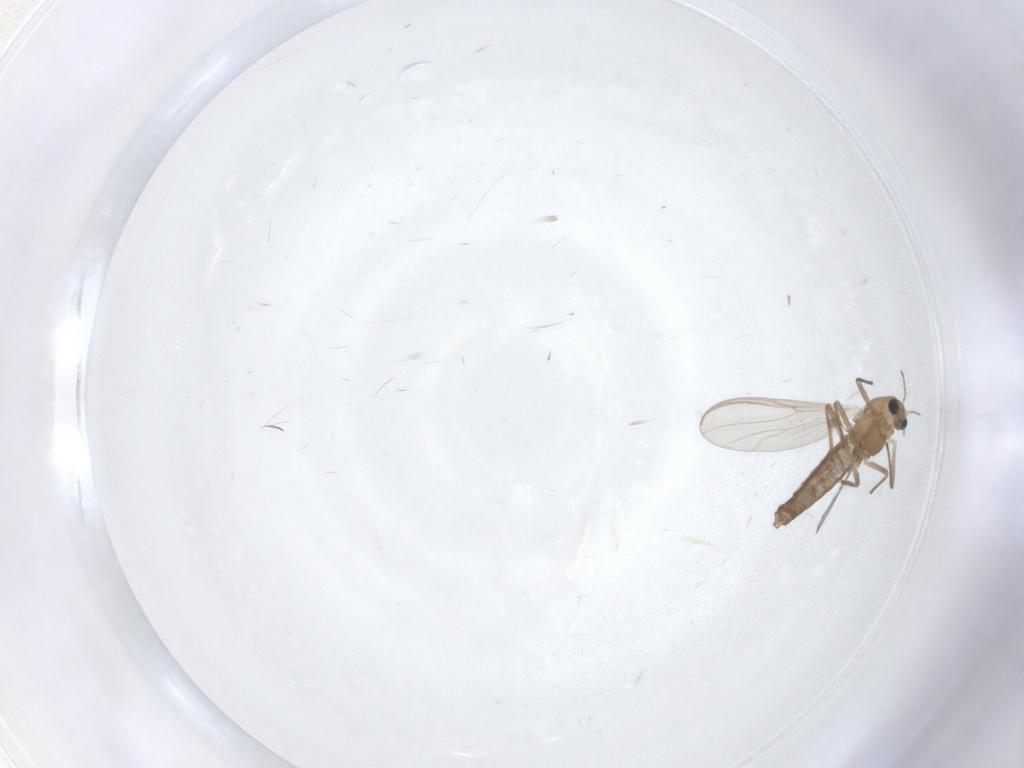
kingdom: Animalia
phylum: Arthropoda
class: Insecta
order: Diptera
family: Chironomidae
